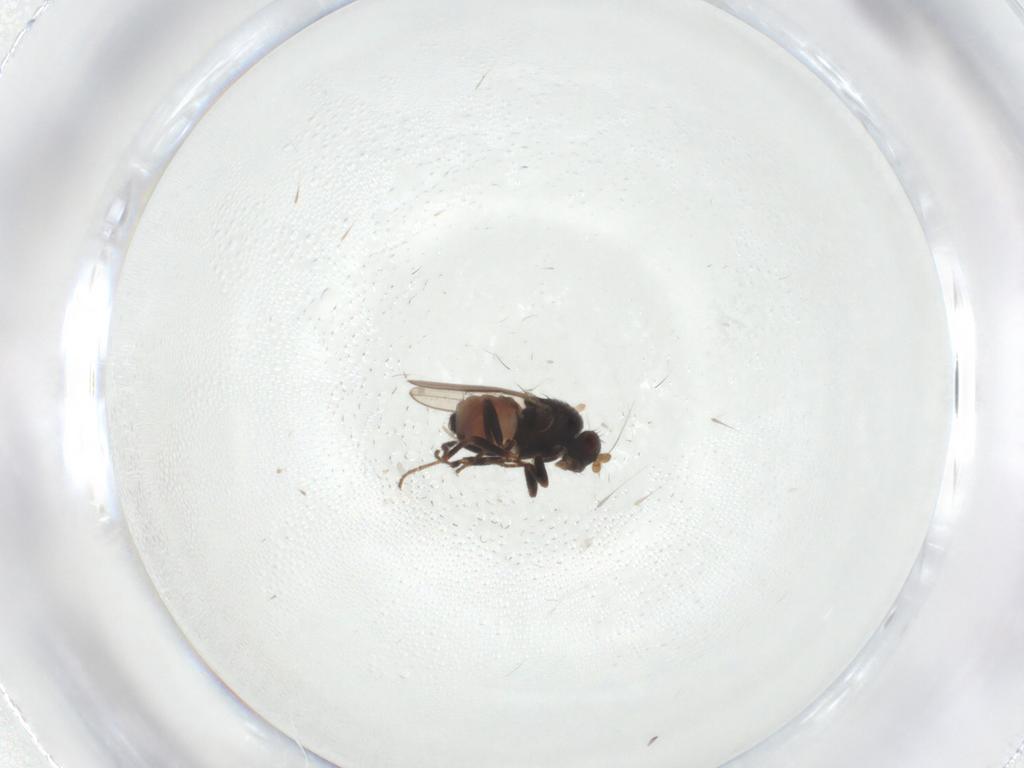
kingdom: Animalia
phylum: Arthropoda
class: Insecta
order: Diptera
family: Sphaeroceridae
